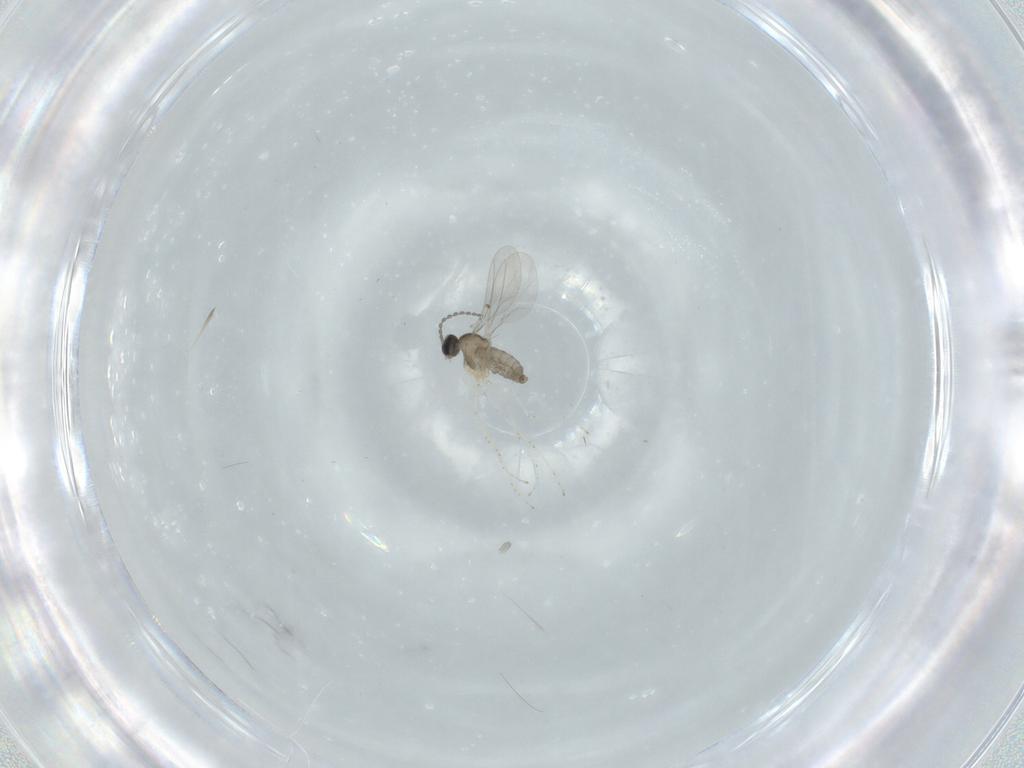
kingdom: Animalia
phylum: Arthropoda
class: Insecta
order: Diptera
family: Cecidomyiidae
